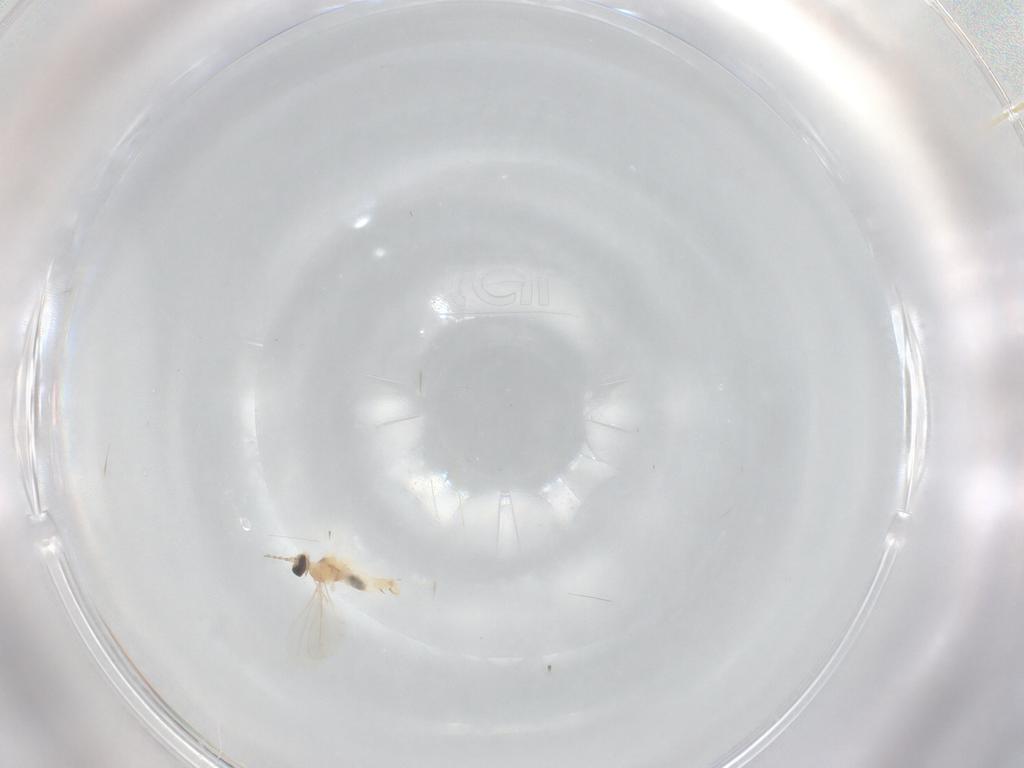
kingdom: Animalia
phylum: Arthropoda
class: Insecta
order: Diptera
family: Cecidomyiidae
